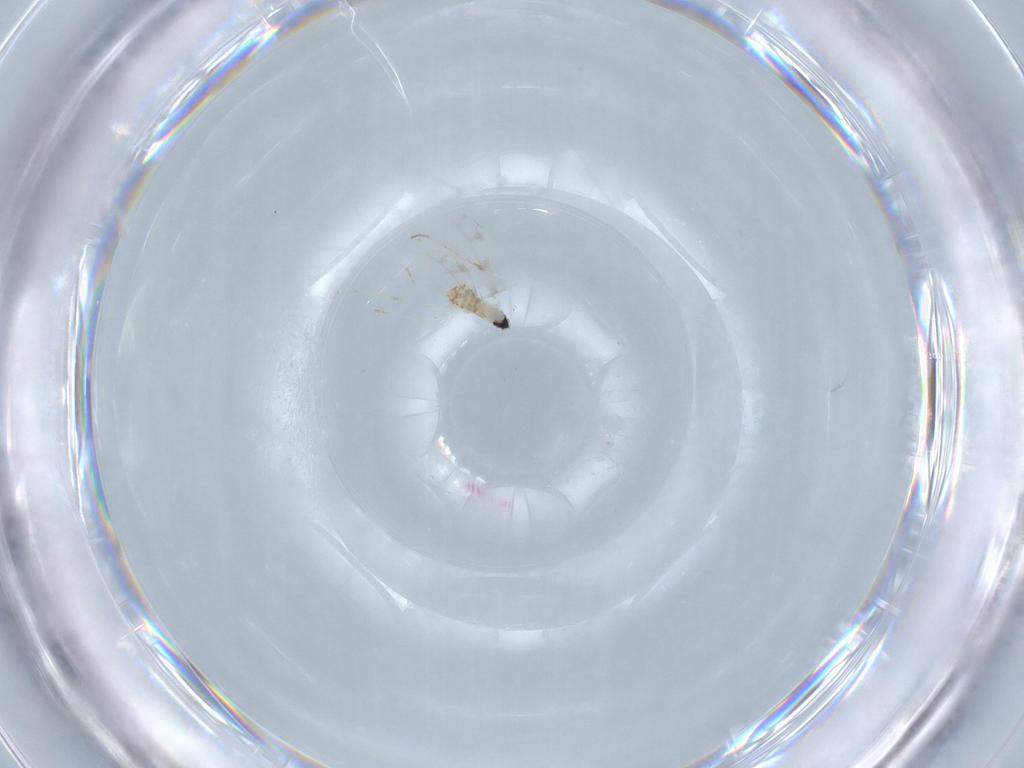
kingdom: Animalia
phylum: Arthropoda
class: Insecta
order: Diptera
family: Cecidomyiidae
